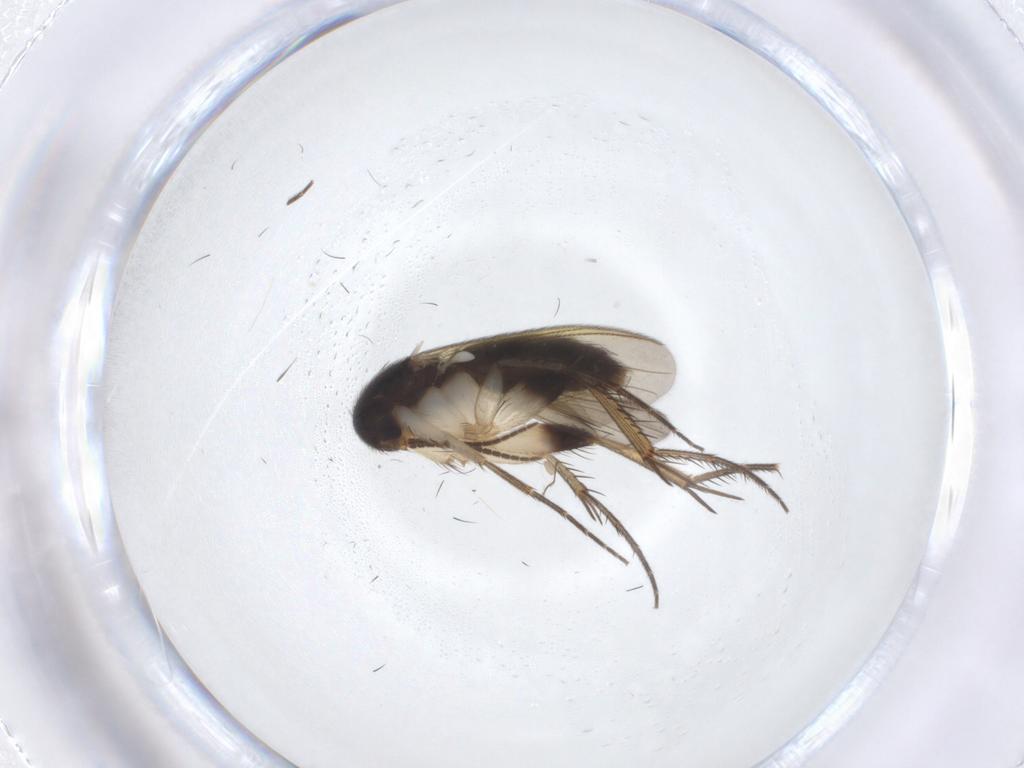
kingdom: Animalia
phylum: Arthropoda
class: Insecta
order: Diptera
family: Chironomidae
